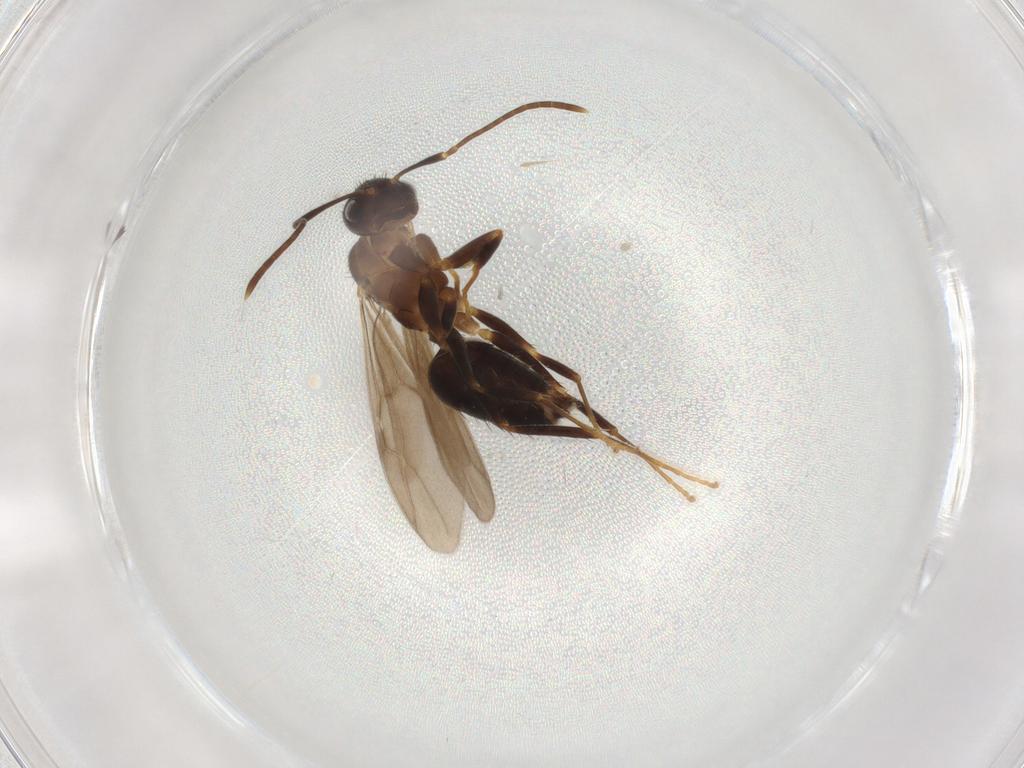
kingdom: Animalia
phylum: Arthropoda
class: Insecta
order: Hymenoptera
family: Formicidae
